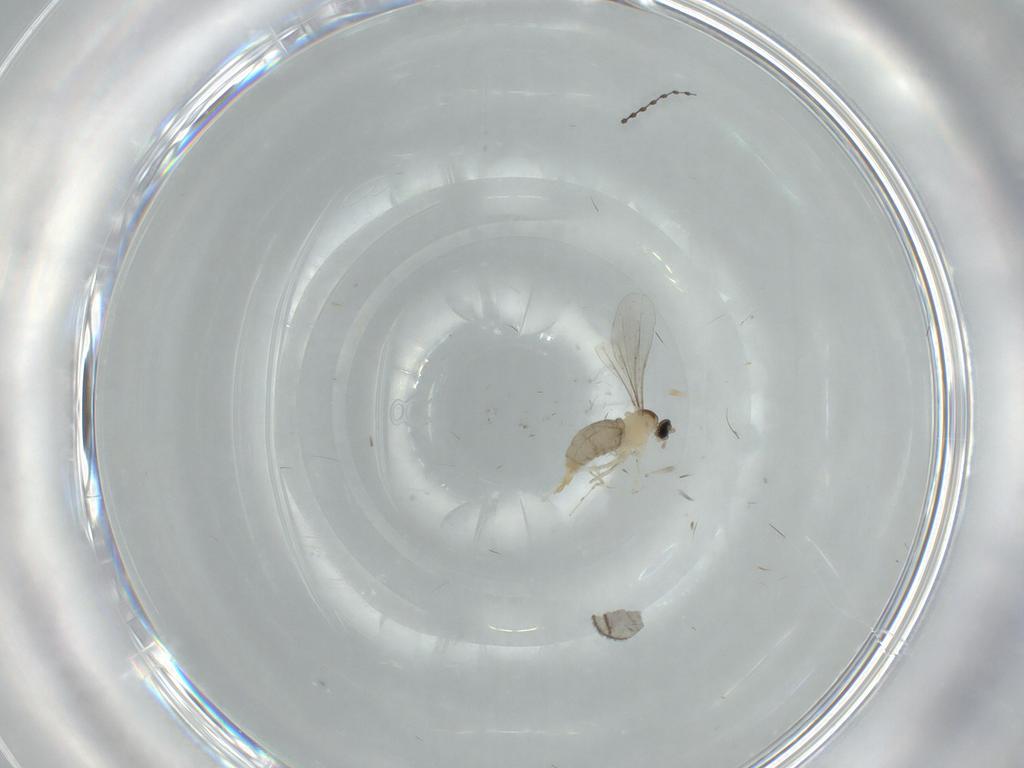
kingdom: Animalia
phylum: Arthropoda
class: Insecta
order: Diptera
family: Cecidomyiidae
